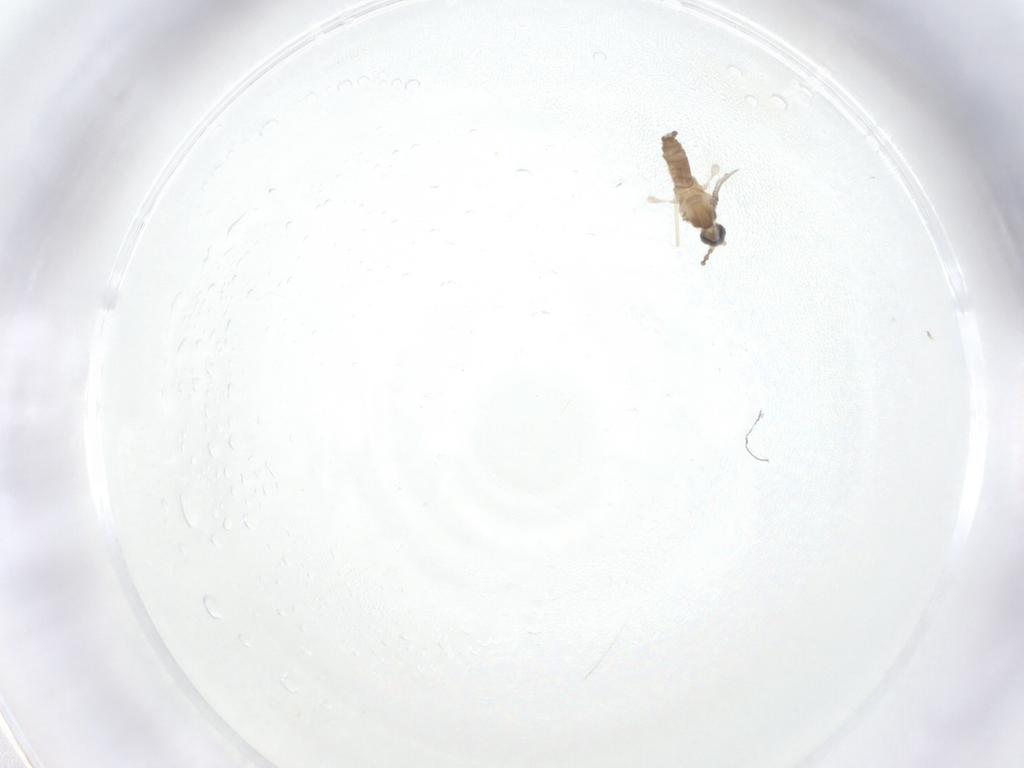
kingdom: Animalia
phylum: Arthropoda
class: Insecta
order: Diptera
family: Cecidomyiidae
